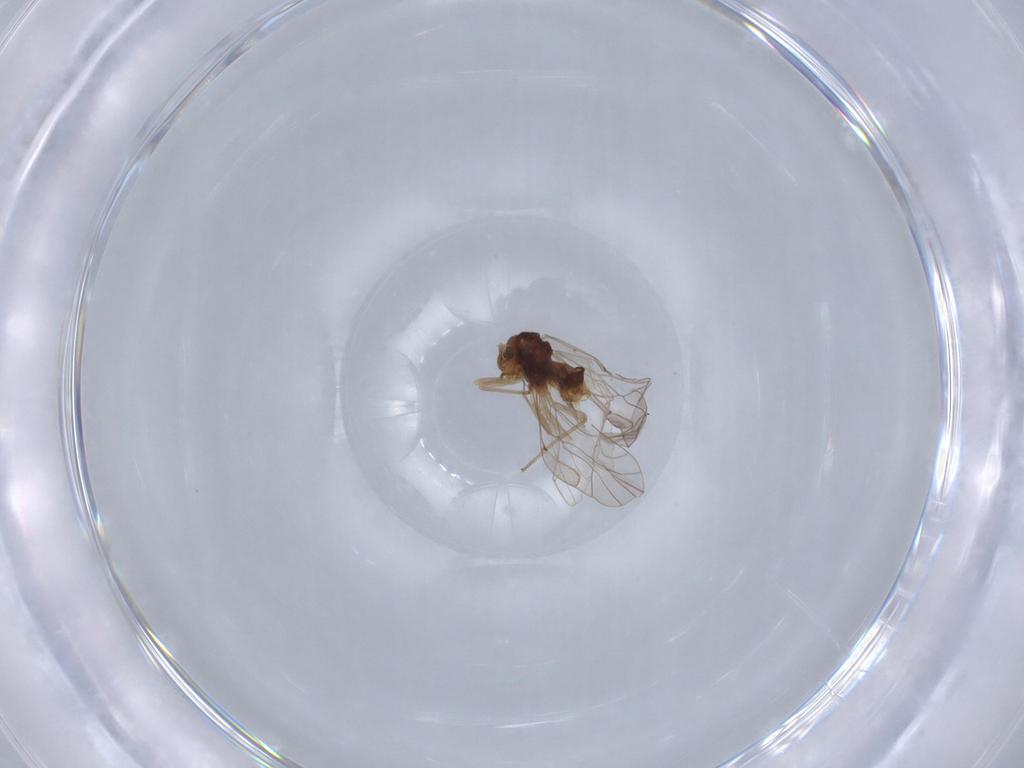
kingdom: Animalia
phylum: Arthropoda
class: Insecta
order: Psocodea
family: Lachesillidae
